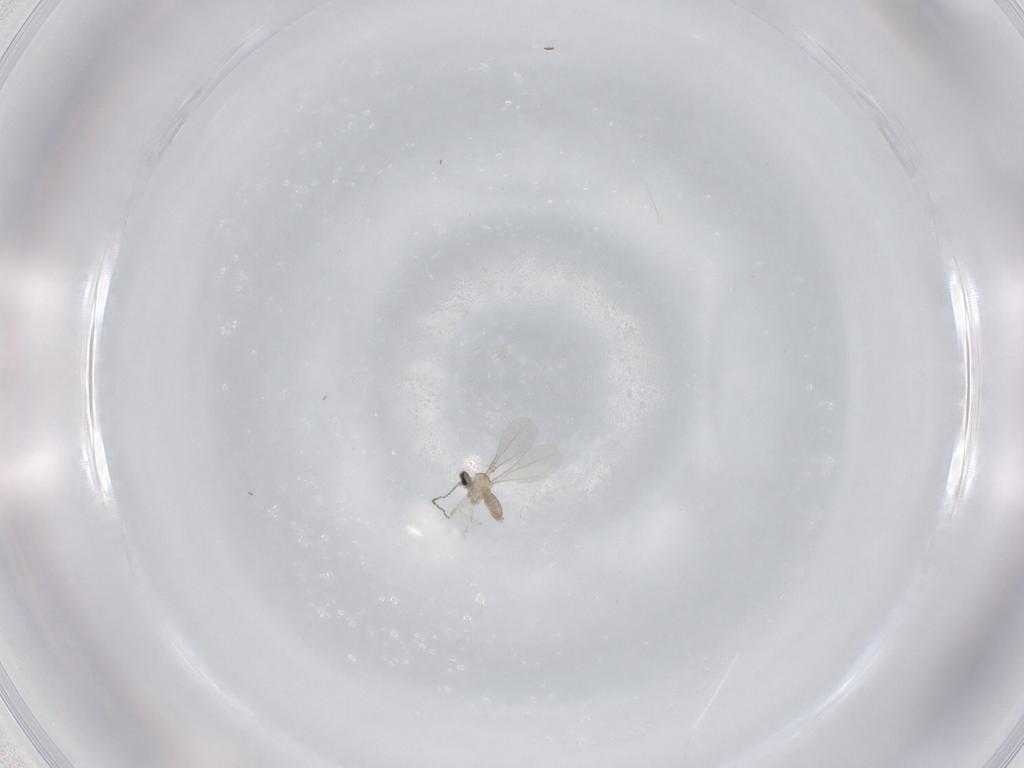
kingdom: Animalia
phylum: Arthropoda
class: Insecta
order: Diptera
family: Cecidomyiidae
